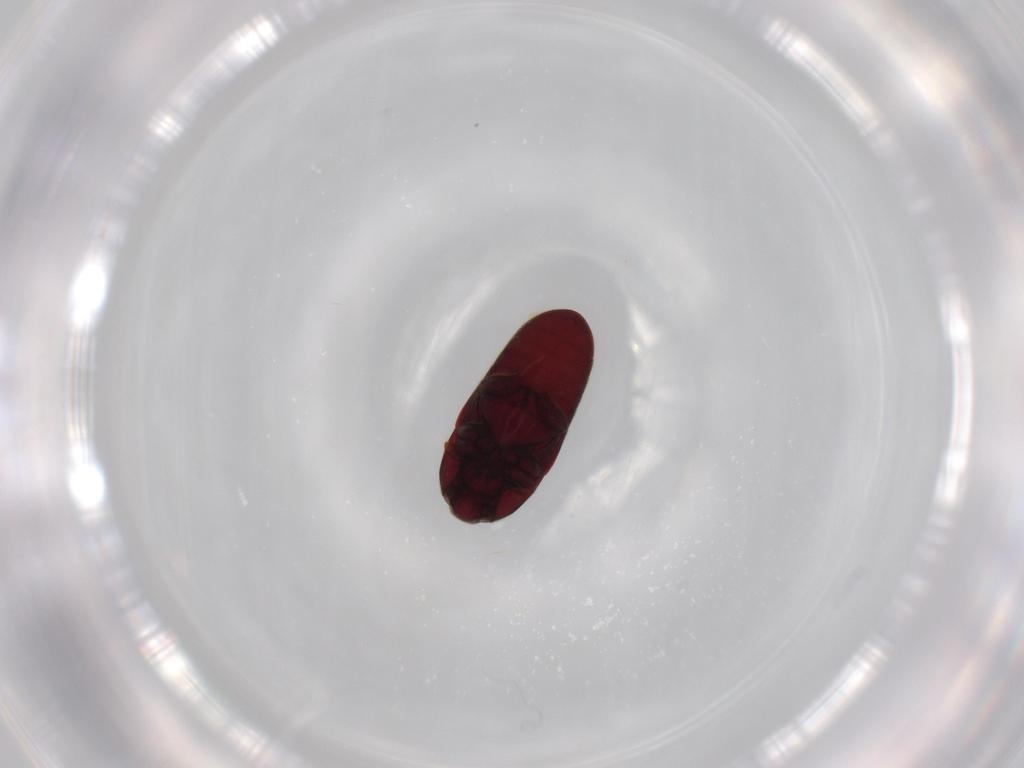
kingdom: Animalia
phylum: Arthropoda
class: Insecta
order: Coleoptera
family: Throscidae
